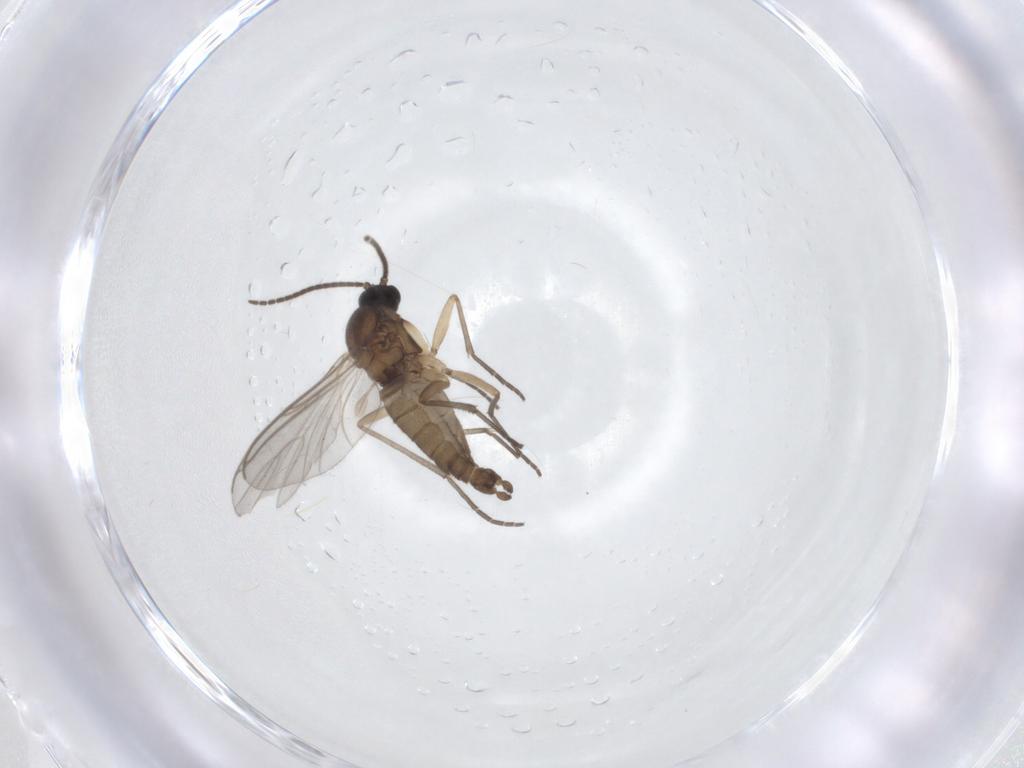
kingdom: Animalia
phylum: Arthropoda
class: Insecta
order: Diptera
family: Sciaridae
